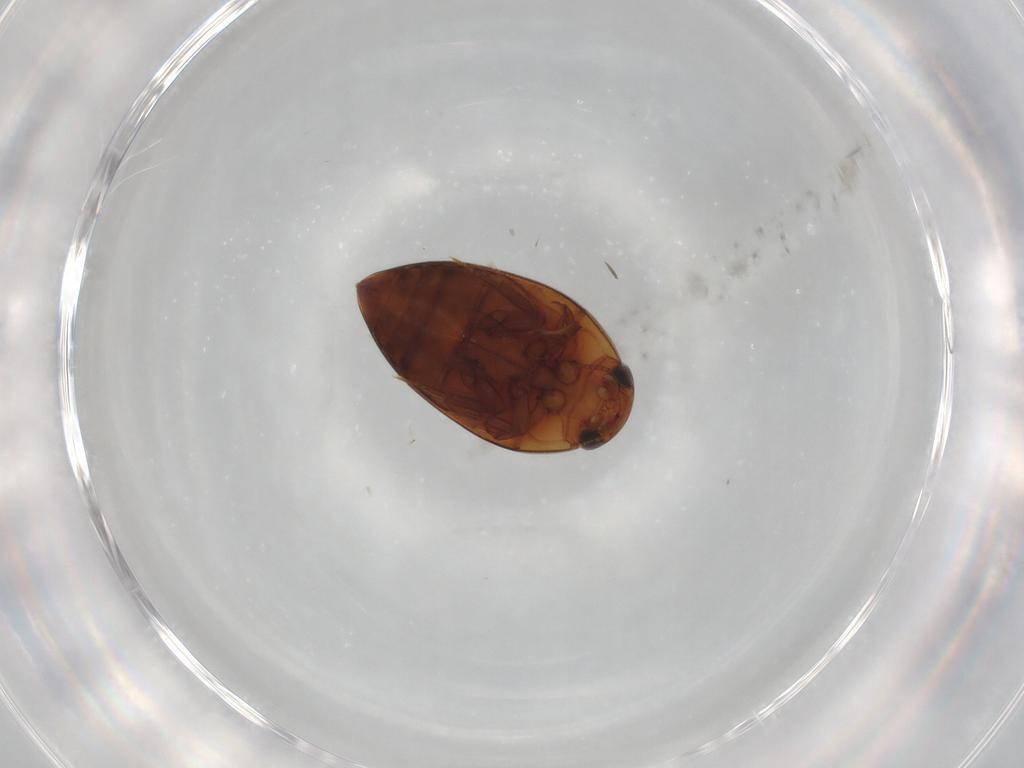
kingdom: Animalia
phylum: Arthropoda
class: Insecta
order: Coleoptera
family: Noteridae
